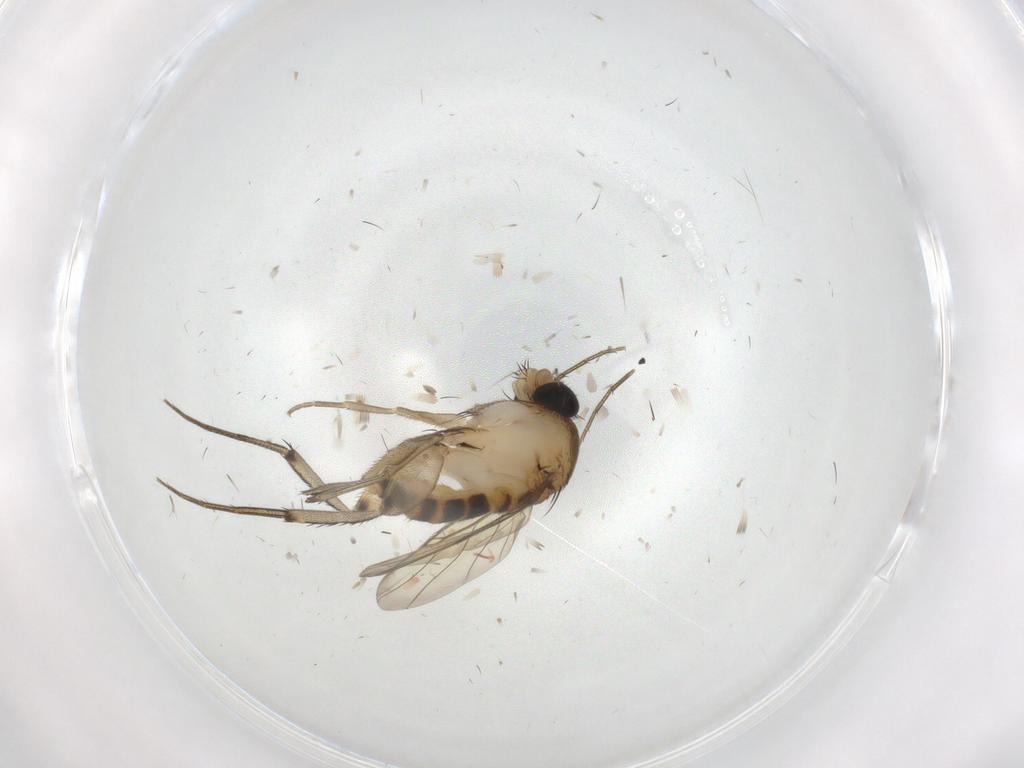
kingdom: Animalia
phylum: Arthropoda
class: Insecta
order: Diptera
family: Phoridae
